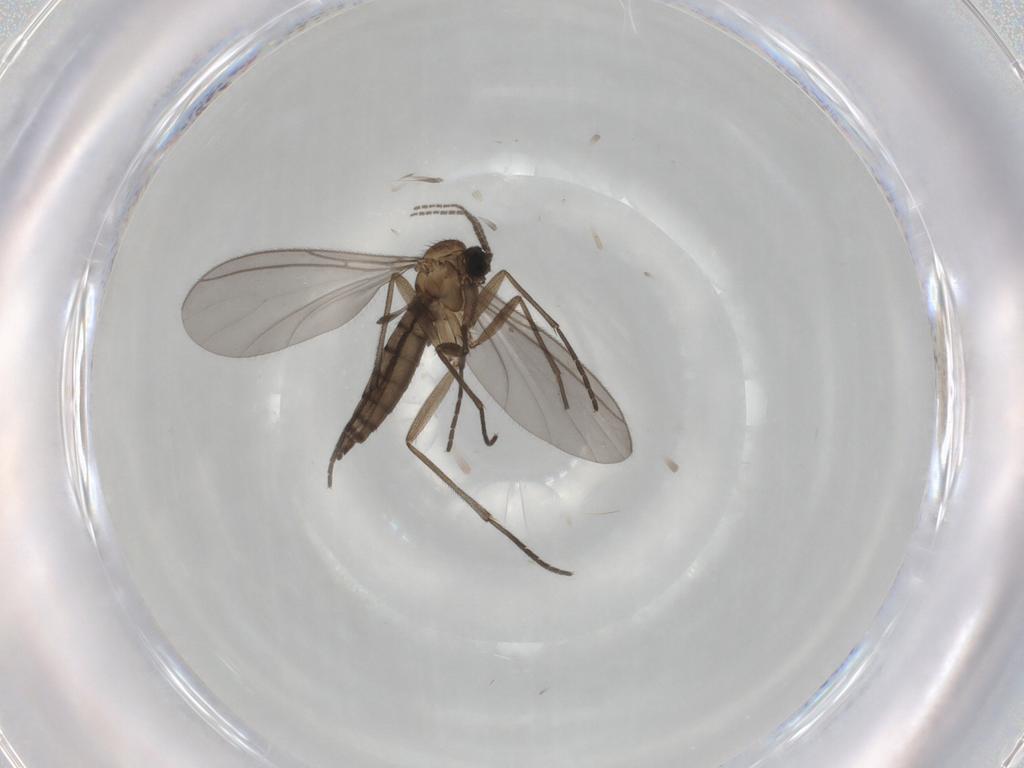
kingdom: Animalia
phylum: Arthropoda
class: Insecta
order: Diptera
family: Sciaridae
